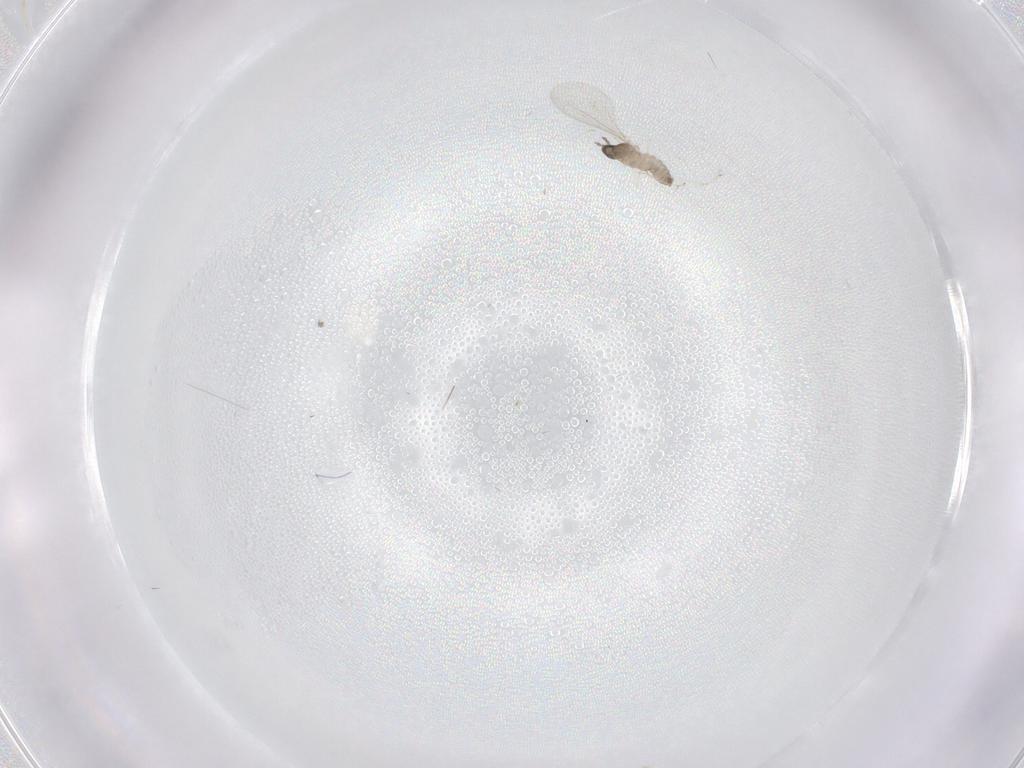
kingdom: Animalia
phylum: Arthropoda
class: Insecta
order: Diptera
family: Cecidomyiidae
